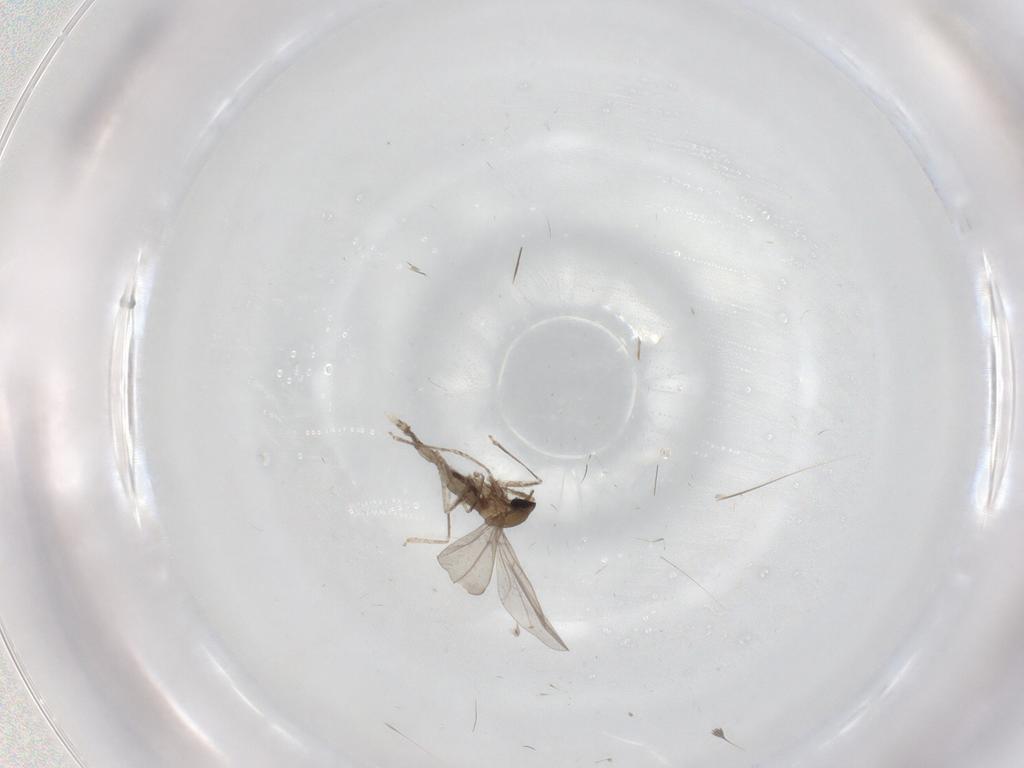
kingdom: Animalia
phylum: Arthropoda
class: Insecta
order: Diptera
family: Cecidomyiidae
